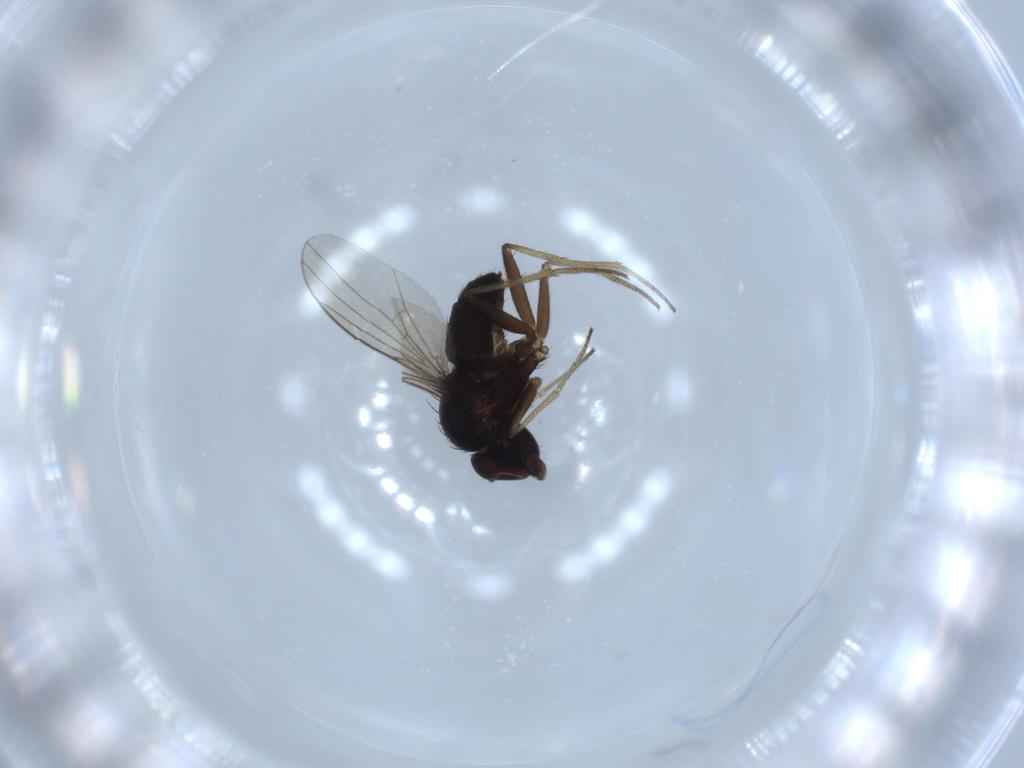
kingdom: Animalia
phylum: Arthropoda
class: Insecta
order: Diptera
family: Dolichopodidae
